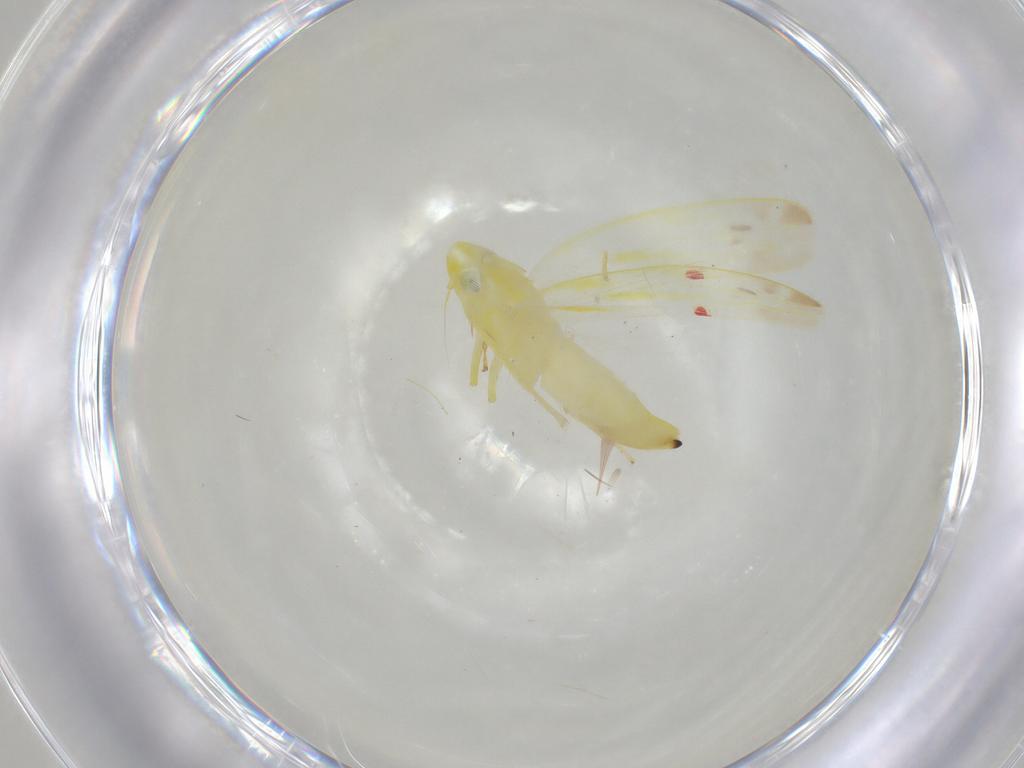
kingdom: Animalia
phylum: Arthropoda
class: Insecta
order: Hemiptera
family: Cicadellidae
